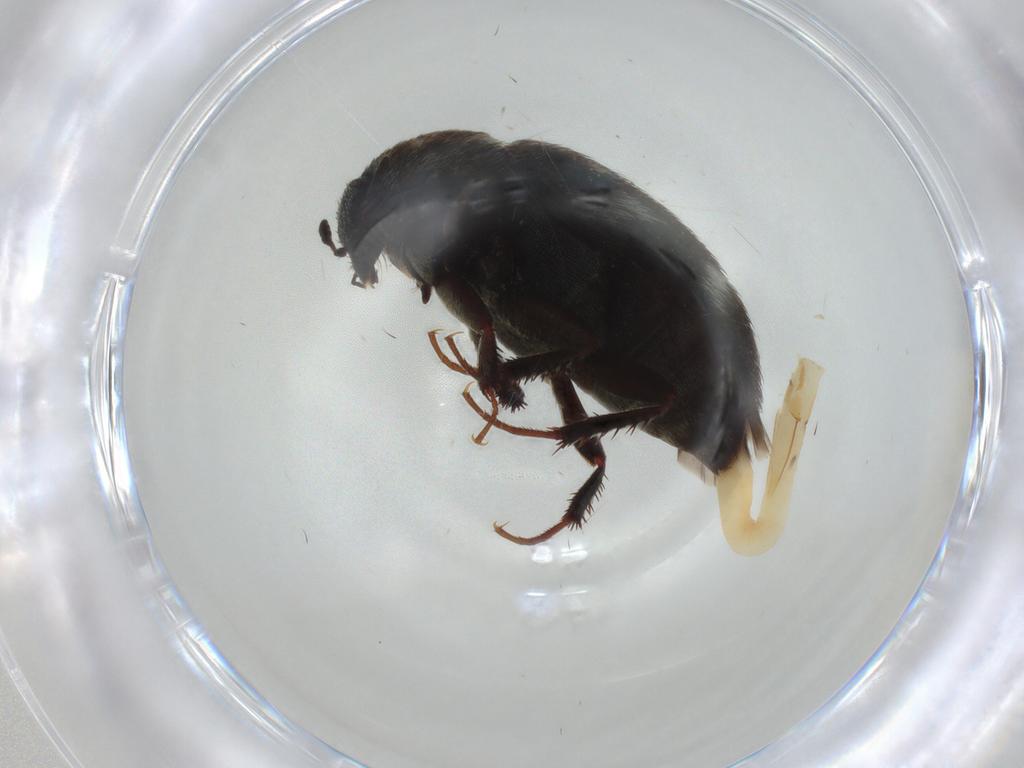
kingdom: Animalia
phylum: Arthropoda
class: Insecta
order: Coleoptera
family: Dermestidae
